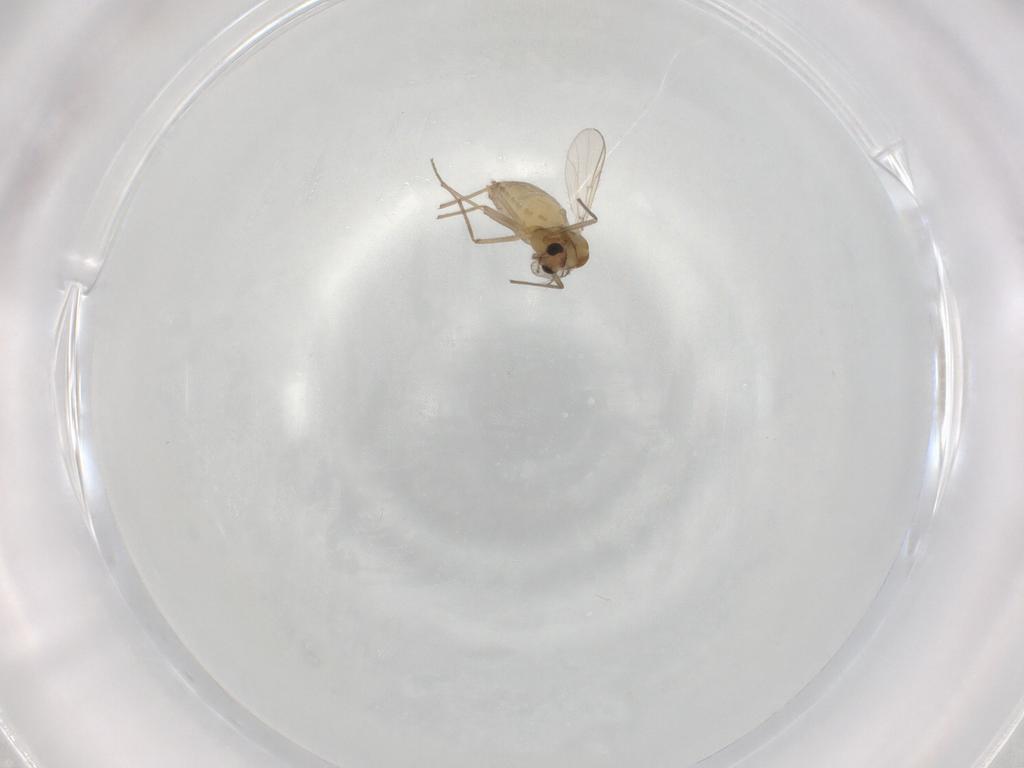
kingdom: Animalia
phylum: Arthropoda
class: Insecta
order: Diptera
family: Chironomidae
